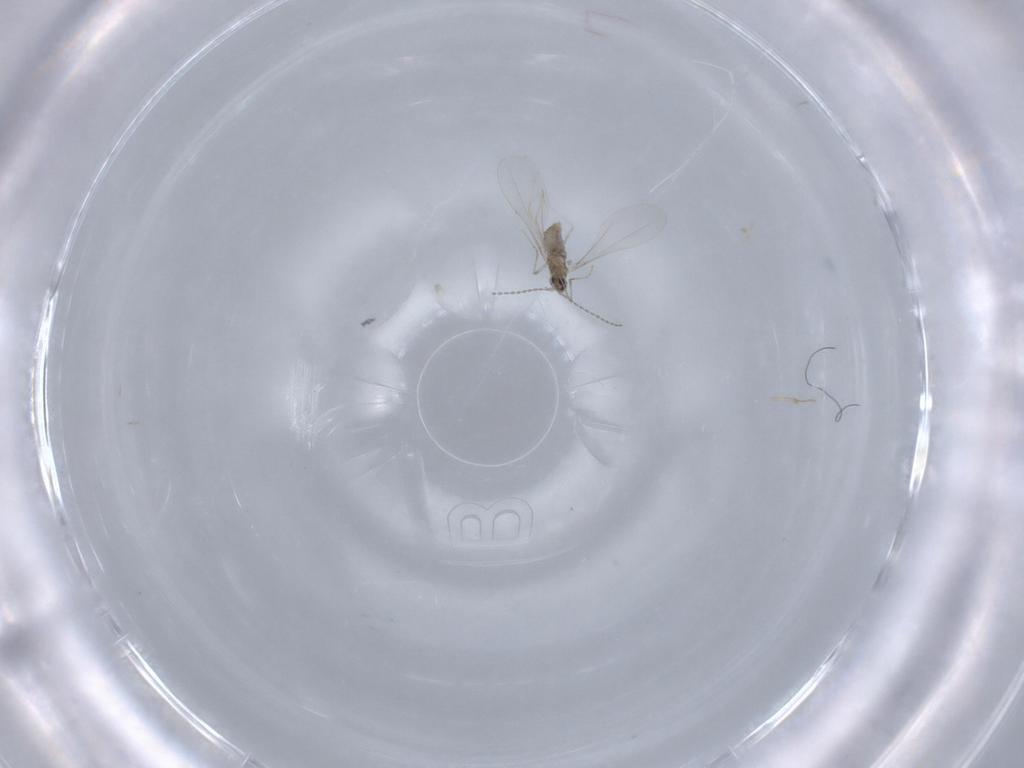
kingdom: Animalia
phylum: Arthropoda
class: Insecta
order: Diptera
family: Cecidomyiidae
